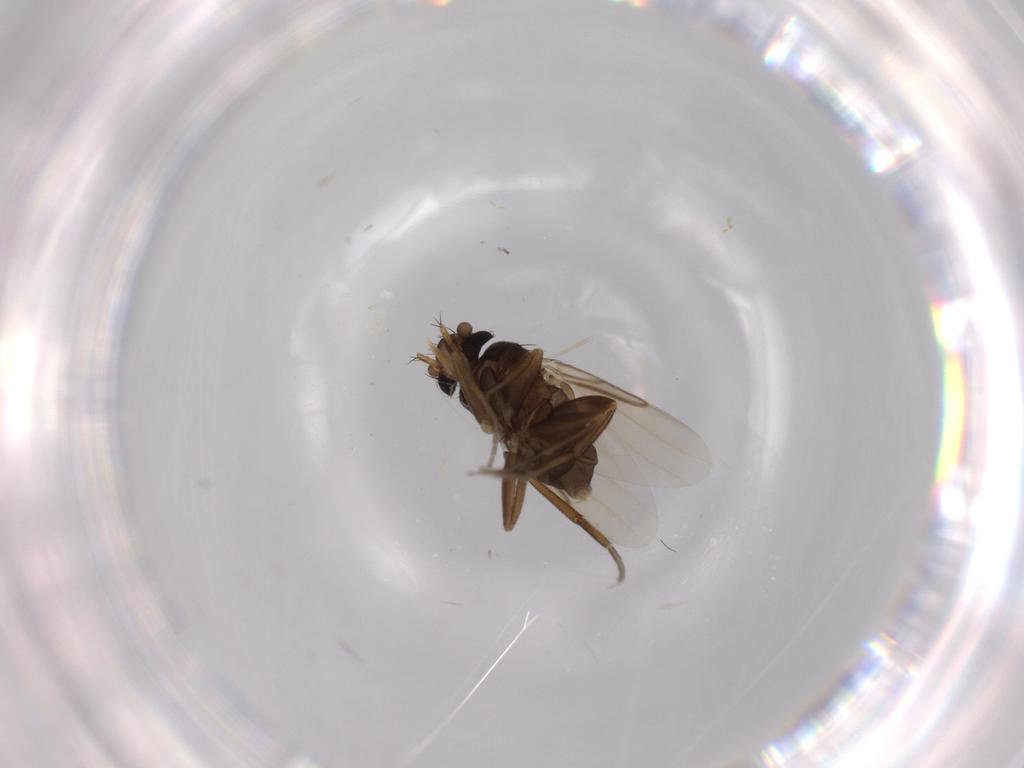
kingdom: Animalia
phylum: Arthropoda
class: Insecta
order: Diptera
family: Phoridae
